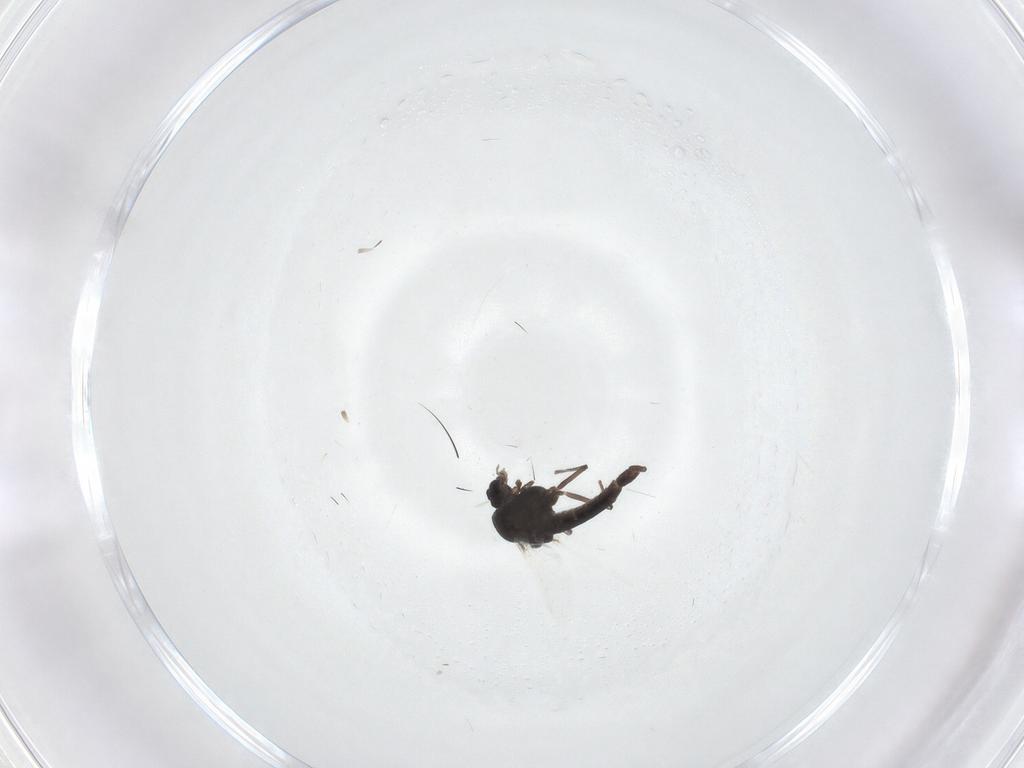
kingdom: Animalia
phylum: Arthropoda
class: Insecta
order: Diptera
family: Chironomidae
